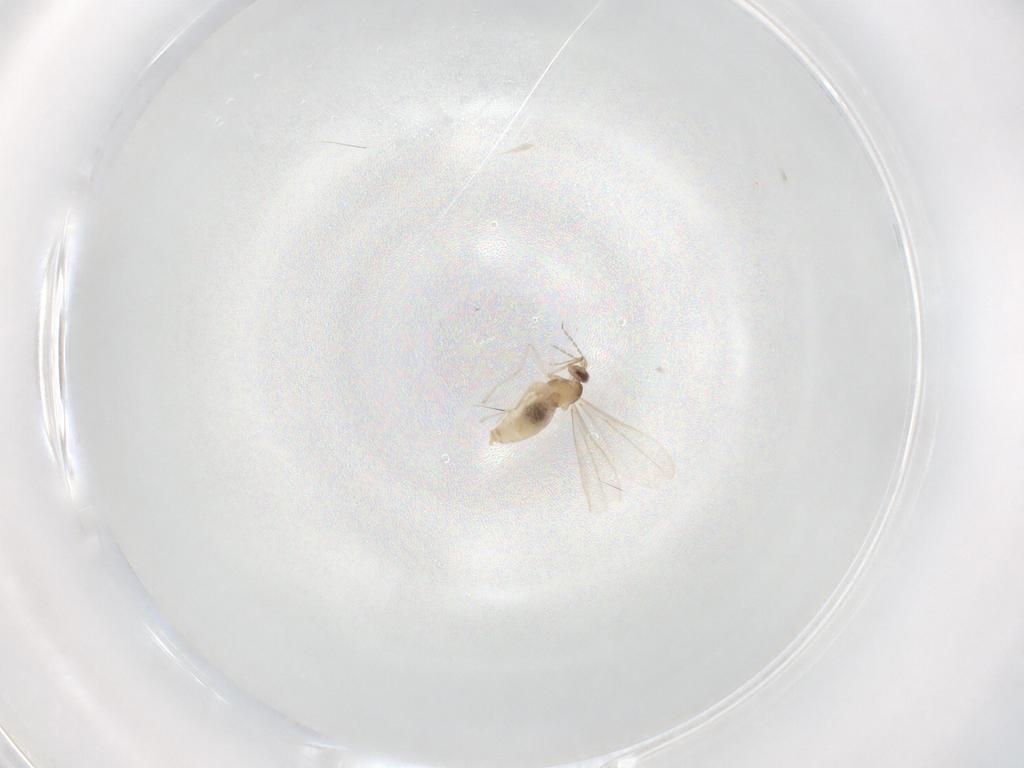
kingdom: Animalia
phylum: Arthropoda
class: Insecta
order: Diptera
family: Cecidomyiidae
